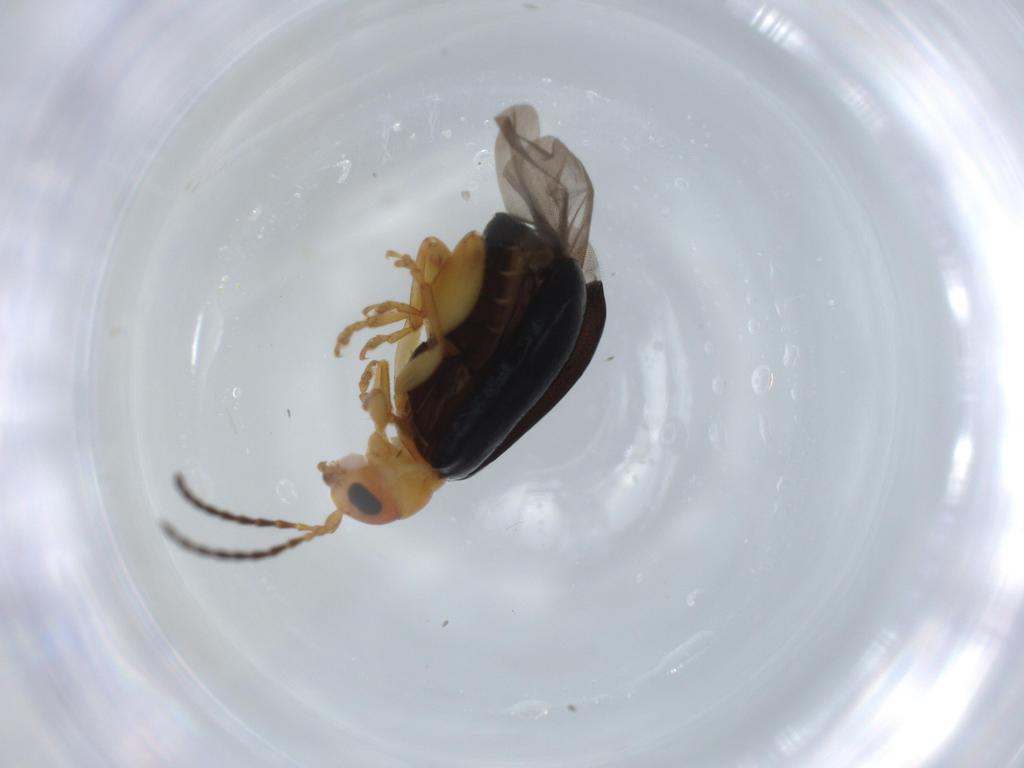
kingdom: Animalia
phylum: Arthropoda
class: Insecta
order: Coleoptera
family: Chrysomelidae
